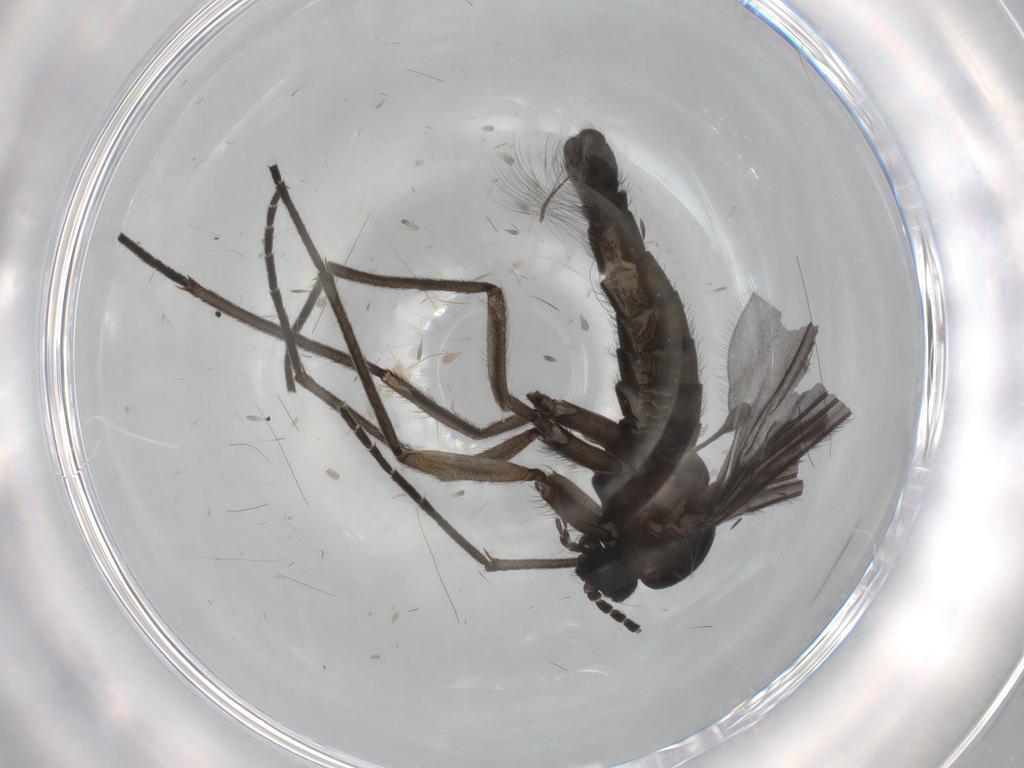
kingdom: Animalia
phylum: Arthropoda
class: Insecta
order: Diptera
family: Sciaridae
